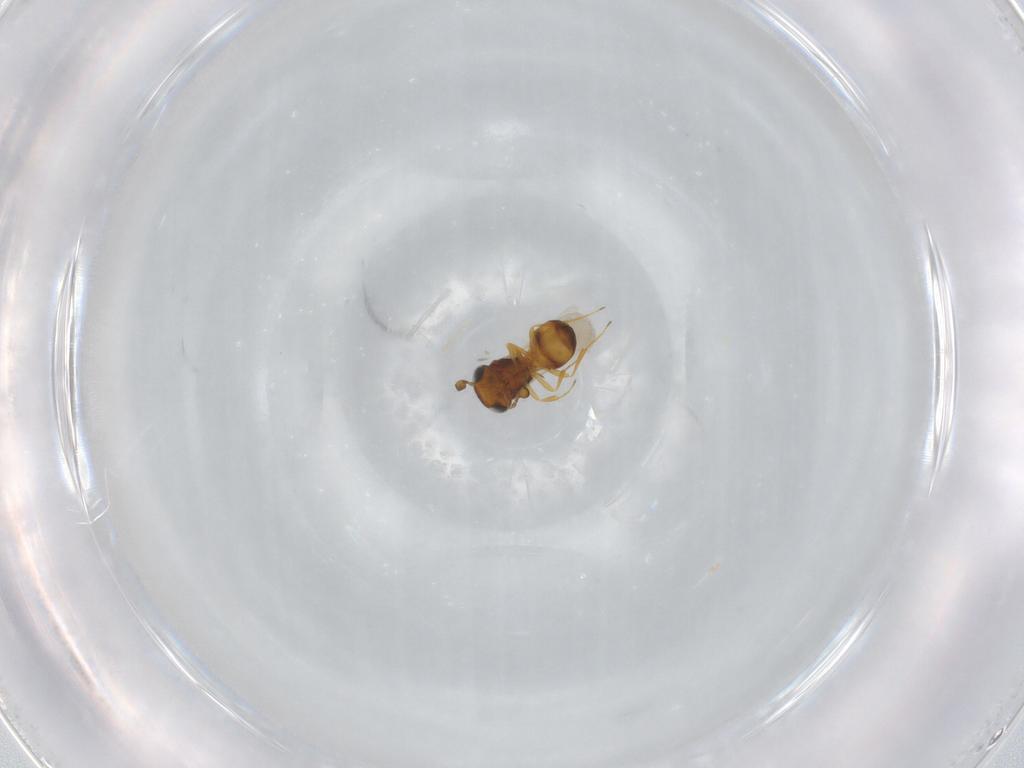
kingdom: Animalia
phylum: Arthropoda
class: Insecta
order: Hymenoptera
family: Scelionidae
